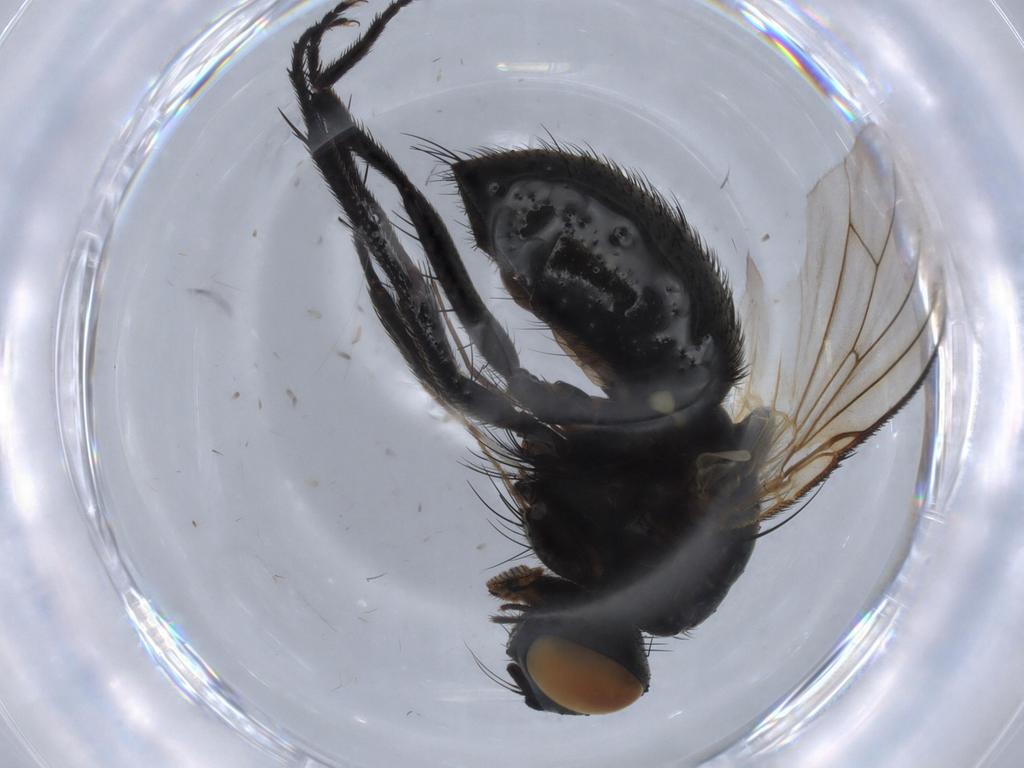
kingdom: Animalia
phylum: Arthropoda
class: Insecta
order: Diptera
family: Muscidae
